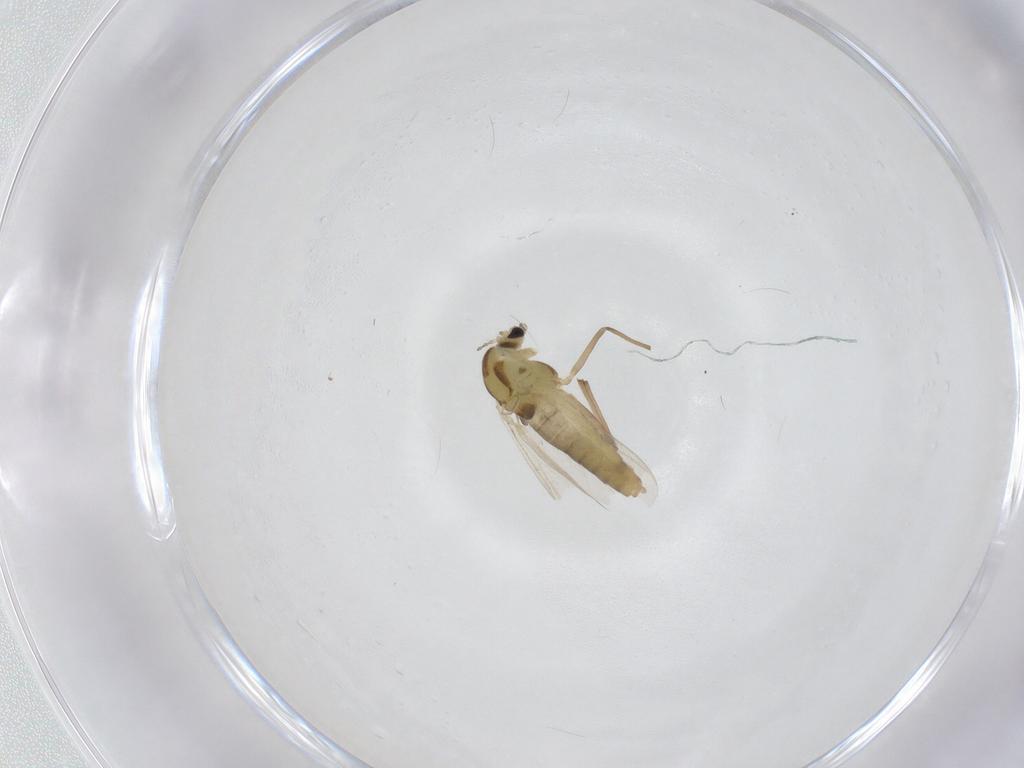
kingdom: Animalia
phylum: Arthropoda
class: Insecta
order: Diptera
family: Chironomidae
